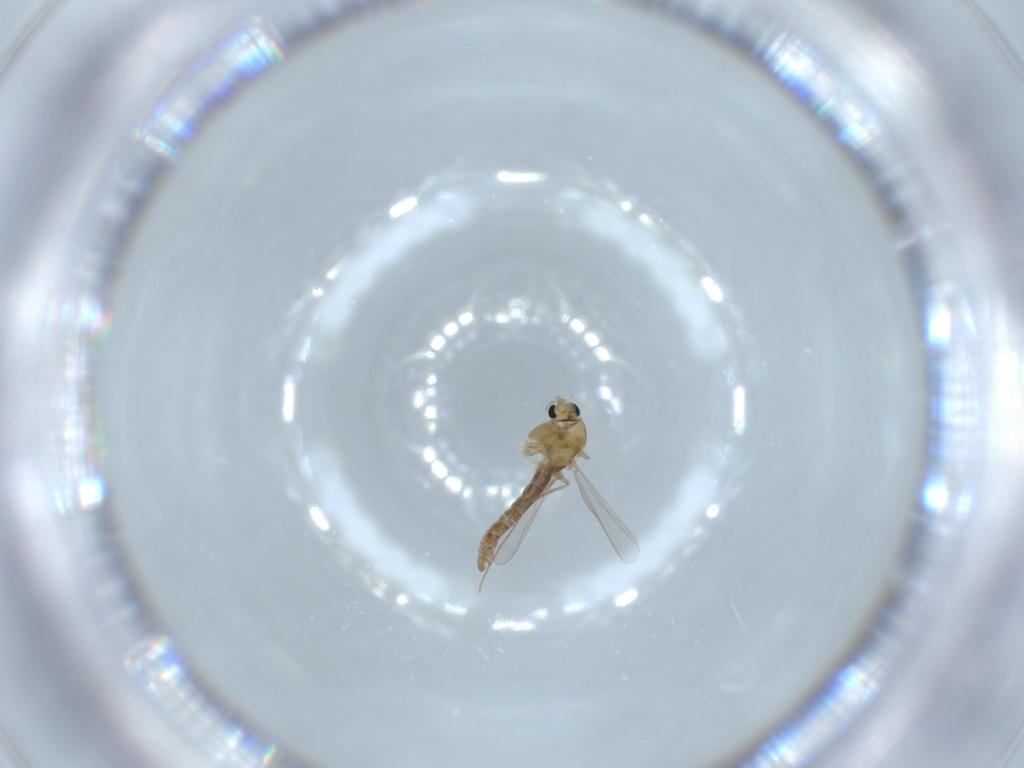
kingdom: Animalia
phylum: Arthropoda
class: Insecta
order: Diptera
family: Chironomidae
